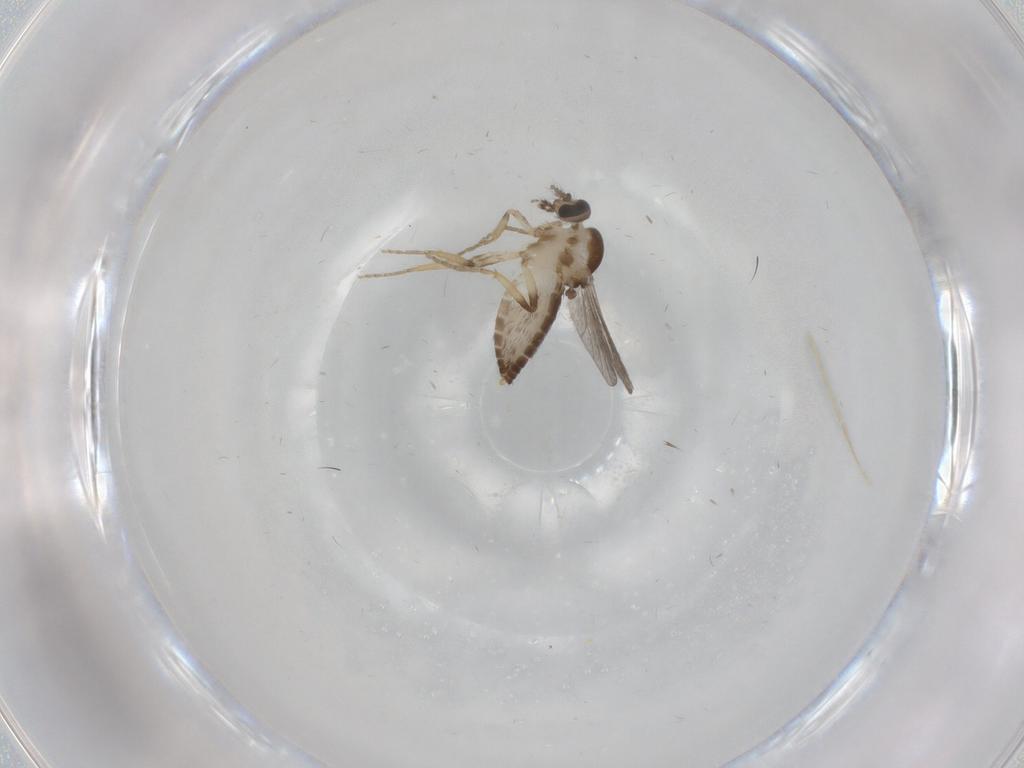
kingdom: Animalia
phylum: Arthropoda
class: Insecta
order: Diptera
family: Ceratopogonidae
